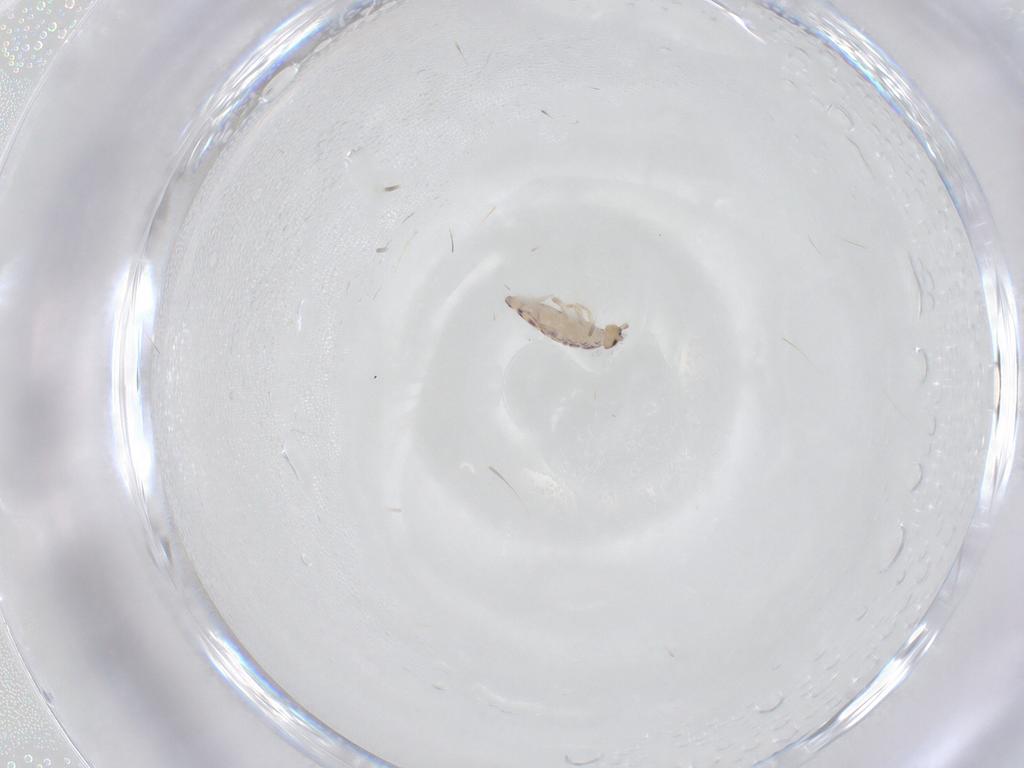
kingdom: Animalia
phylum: Arthropoda
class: Collembola
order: Entomobryomorpha
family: Entomobryidae
